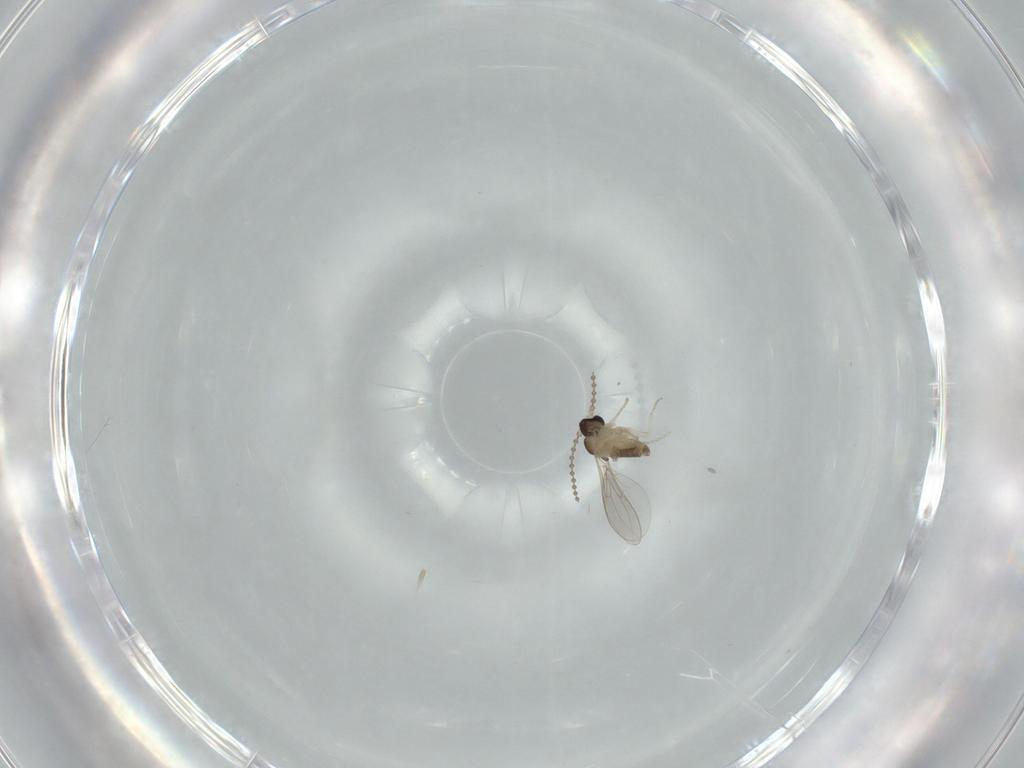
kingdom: Animalia
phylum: Arthropoda
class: Insecta
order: Diptera
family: Cecidomyiidae
